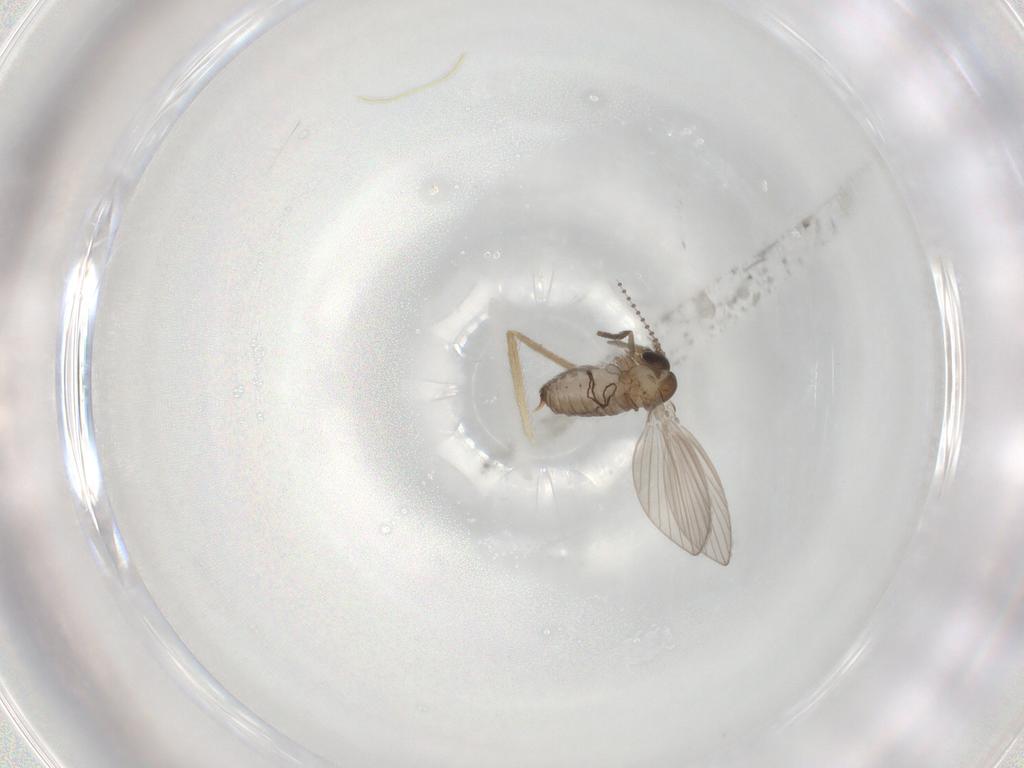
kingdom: Animalia
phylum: Arthropoda
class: Insecta
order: Diptera
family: Psychodidae
